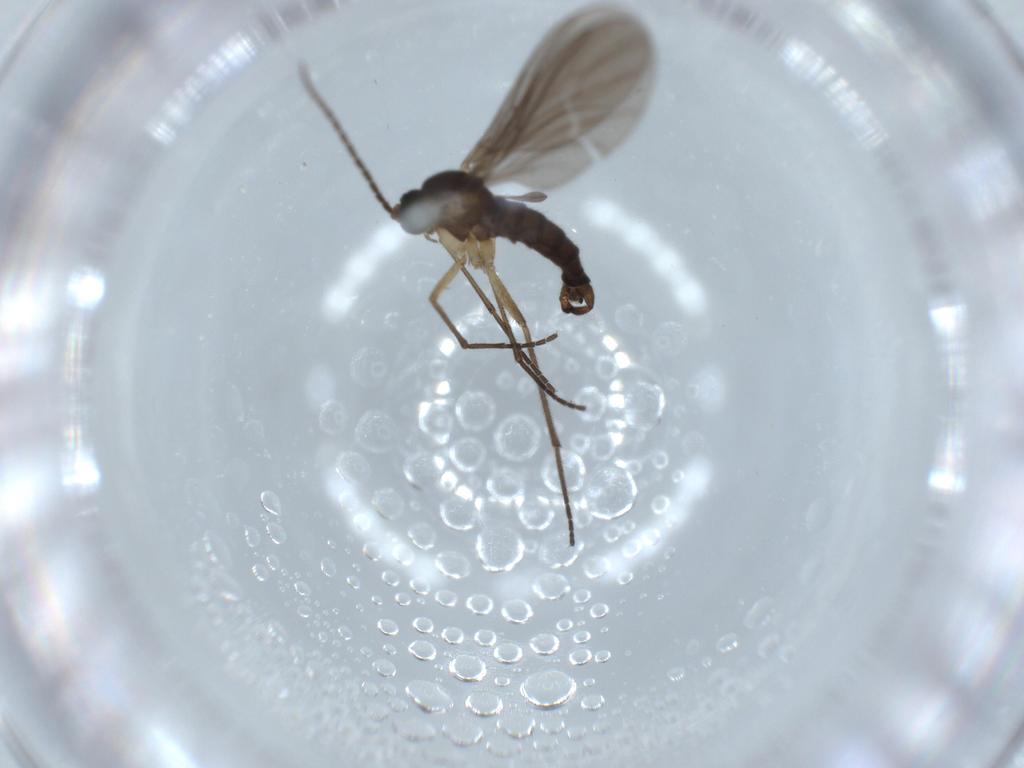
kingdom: Animalia
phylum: Arthropoda
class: Insecta
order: Diptera
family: Sciaridae
